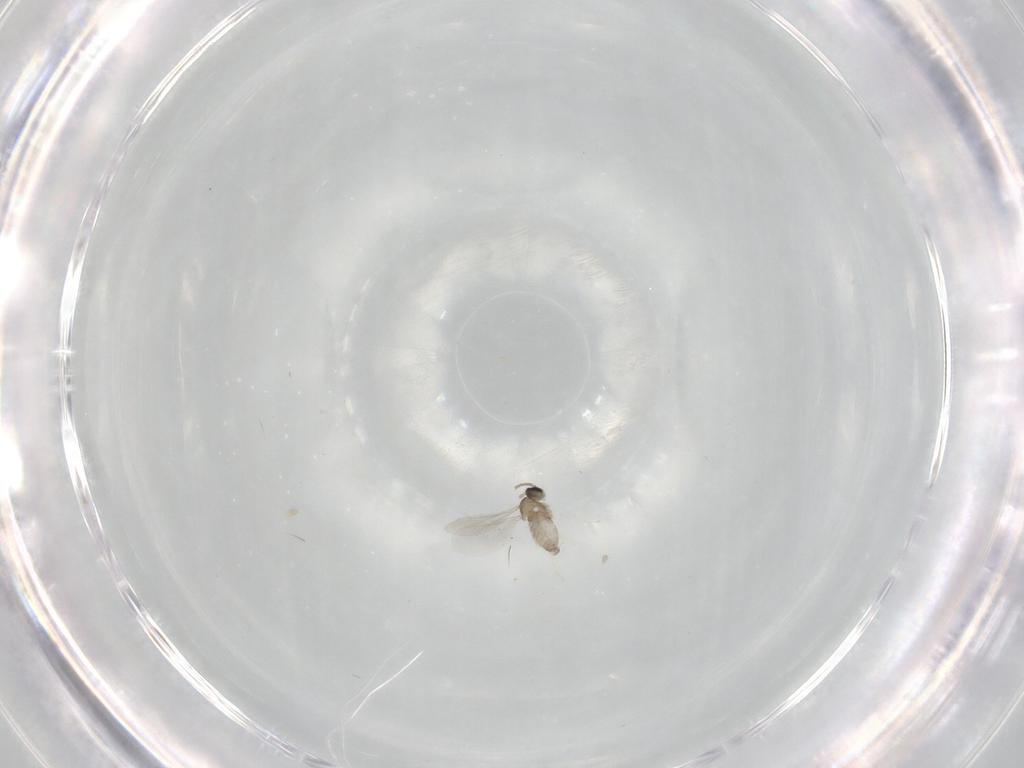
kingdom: Animalia
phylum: Arthropoda
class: Insecta
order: Diptera
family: Cecidomyiidae
